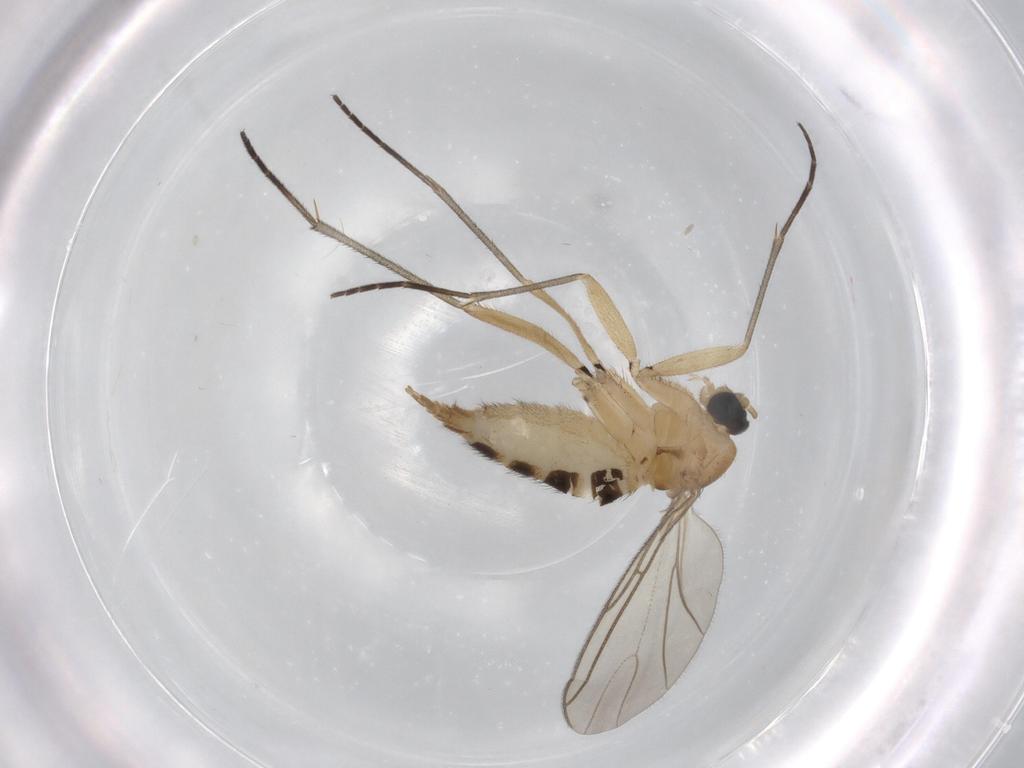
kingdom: Animalia
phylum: Arthropoda
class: Insecta
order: Diptera
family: Sciaridae
